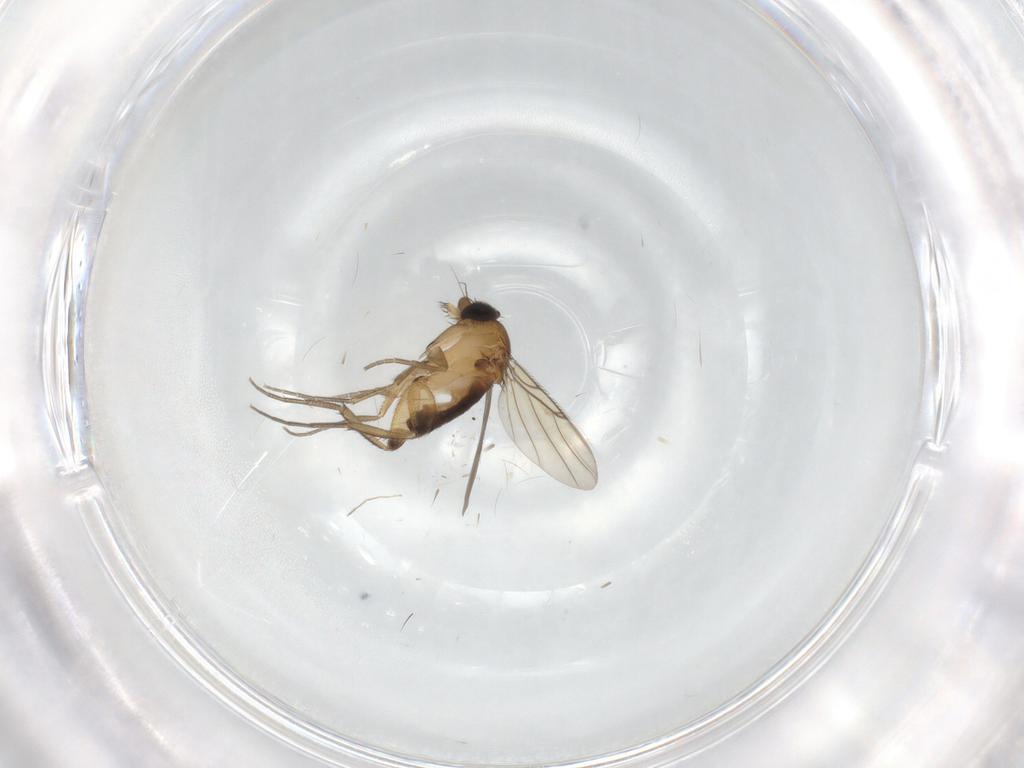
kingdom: Animalia
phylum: Arthropoda
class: Insecta
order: Diptera
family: Phoridae
